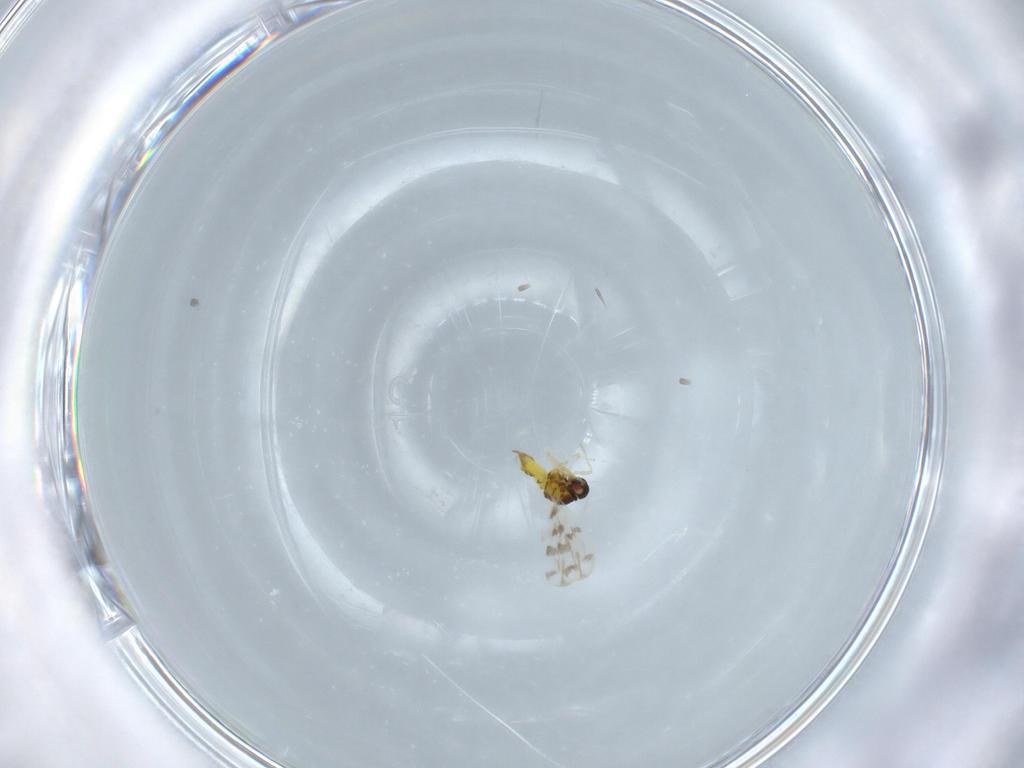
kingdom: Animalia
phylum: Arthropoda
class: Insecta
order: Hemiptera
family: Aleyrodidae
